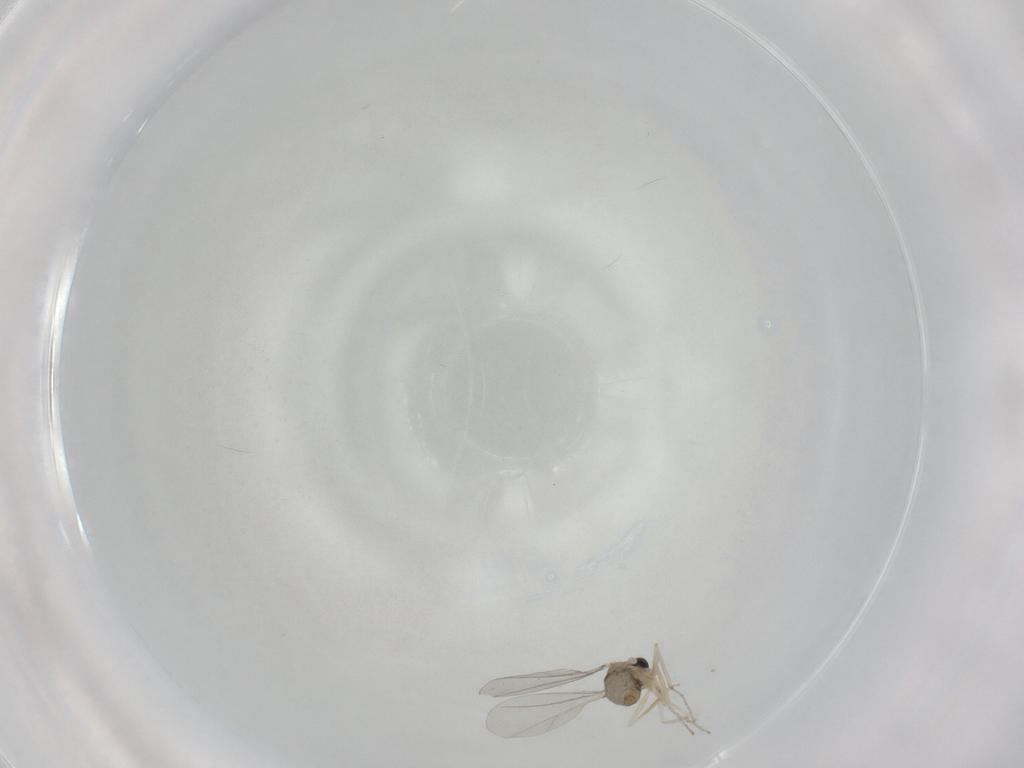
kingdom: Animalia
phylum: Arthropoda
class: Insecta
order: Diptera
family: Cecidomyiidae
